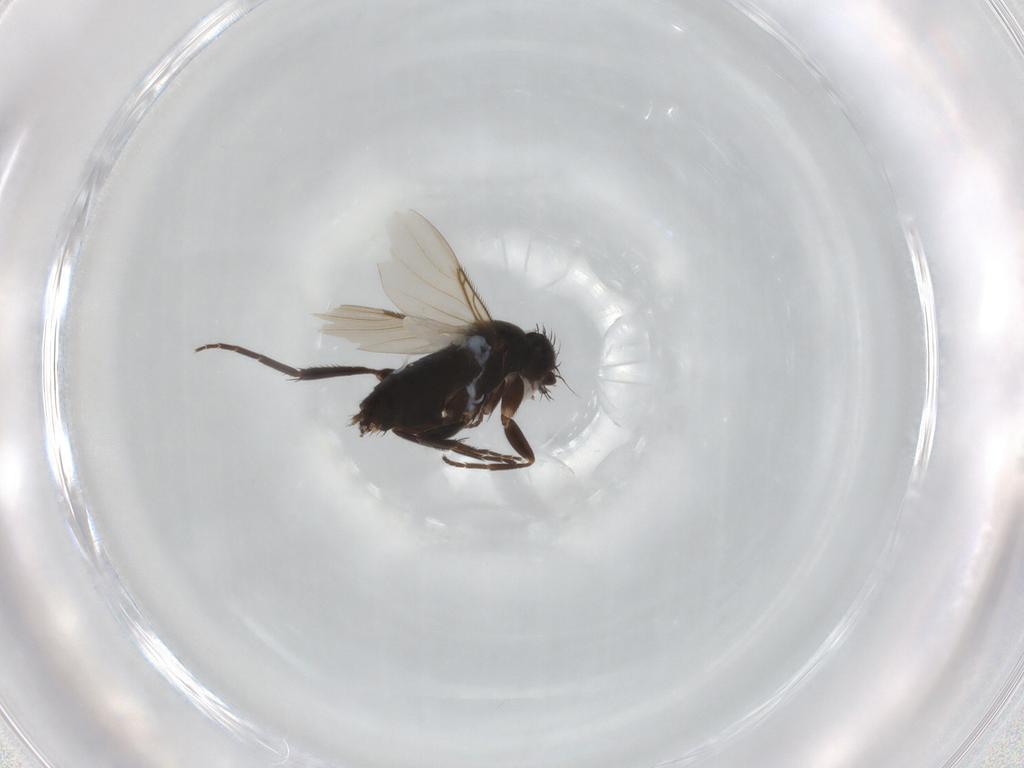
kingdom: Animalia
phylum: Arthropoda
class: Insecta
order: Diptera
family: Phoridae
